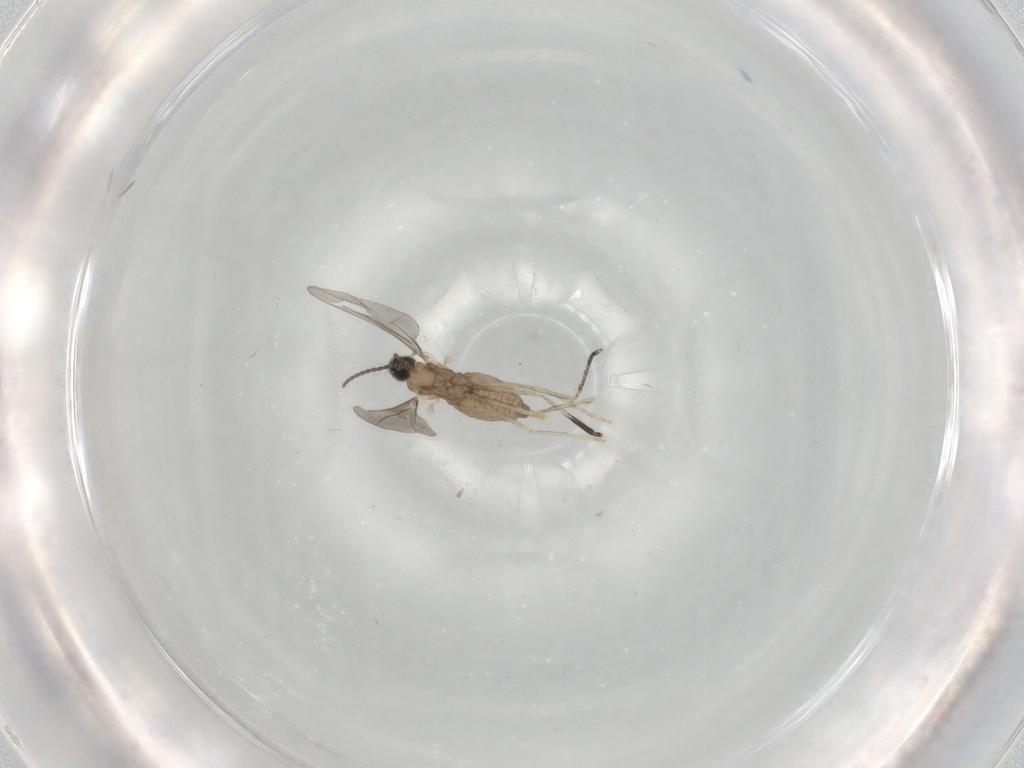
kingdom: Animalia
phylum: Arthropoda
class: Insecta
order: Diptera
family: Cecidomyiidae
